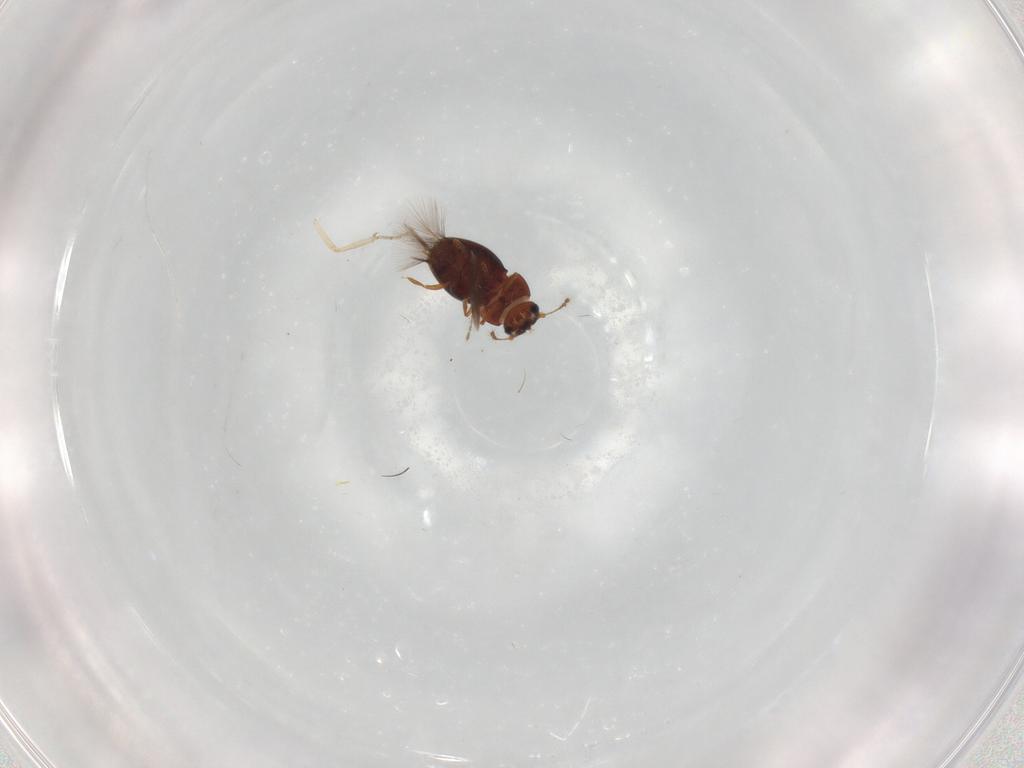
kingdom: Animalia
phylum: Arthropoda
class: Insecta
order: Coleoptera
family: Ptiliidae
